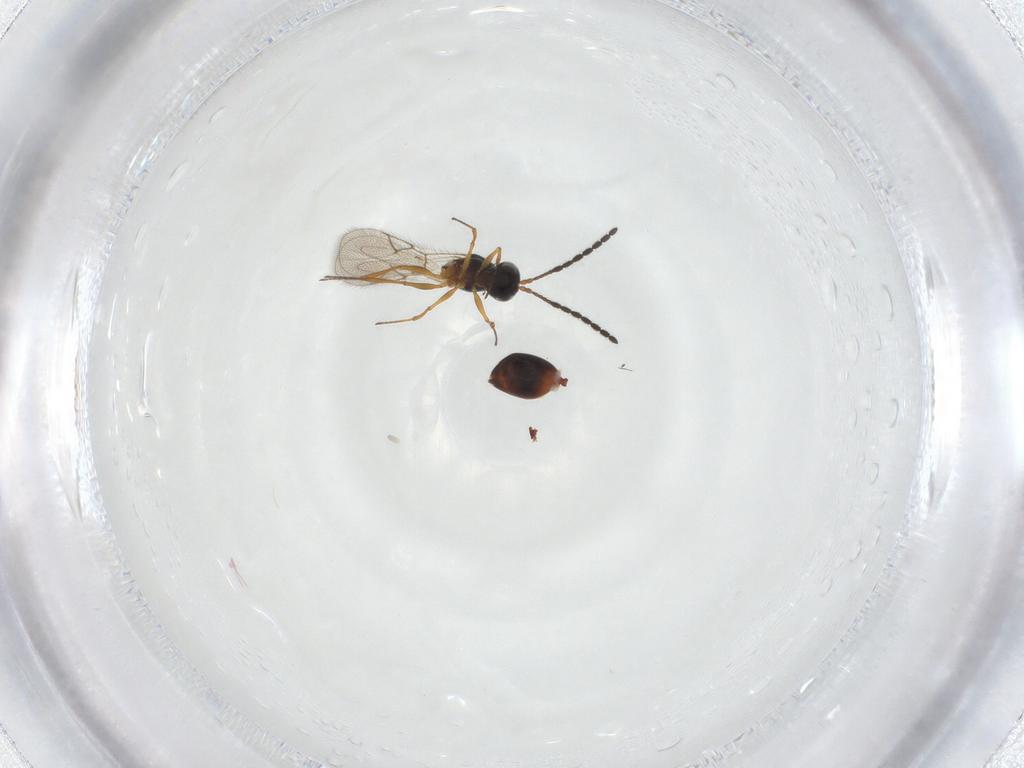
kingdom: Animalia
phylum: Arthropoda
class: Insecta
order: Hymenoptera
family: Figitidae
